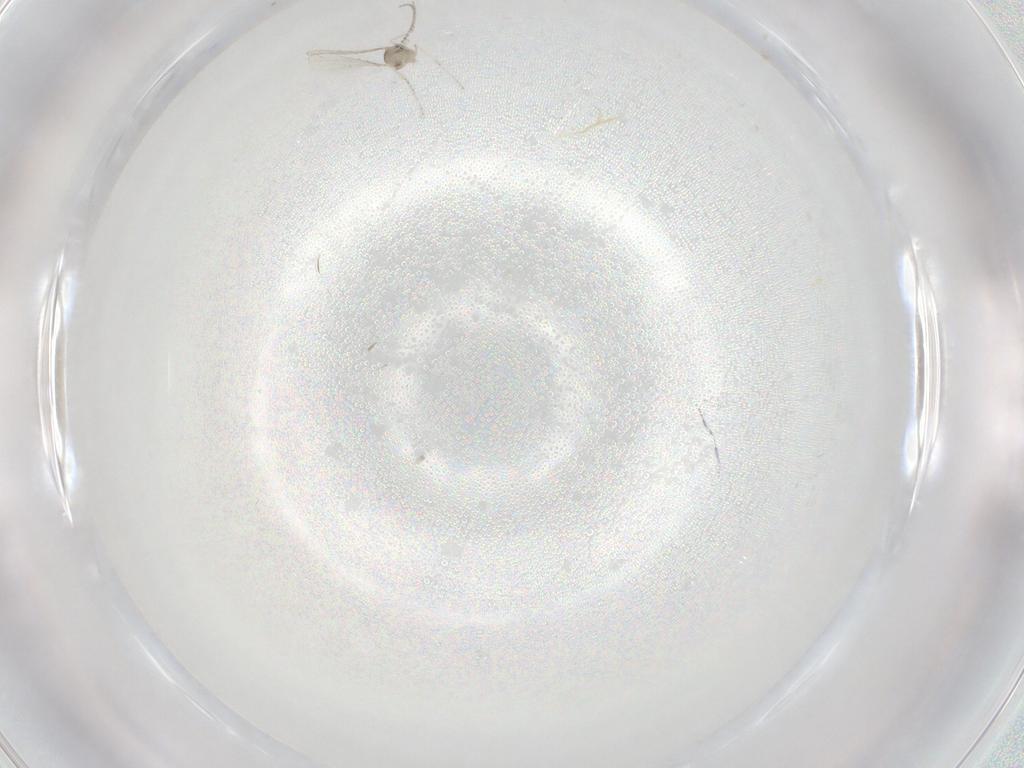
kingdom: Animalia
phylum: Arthropoda
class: Insecta
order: Diptera
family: Cecidomyiidae
